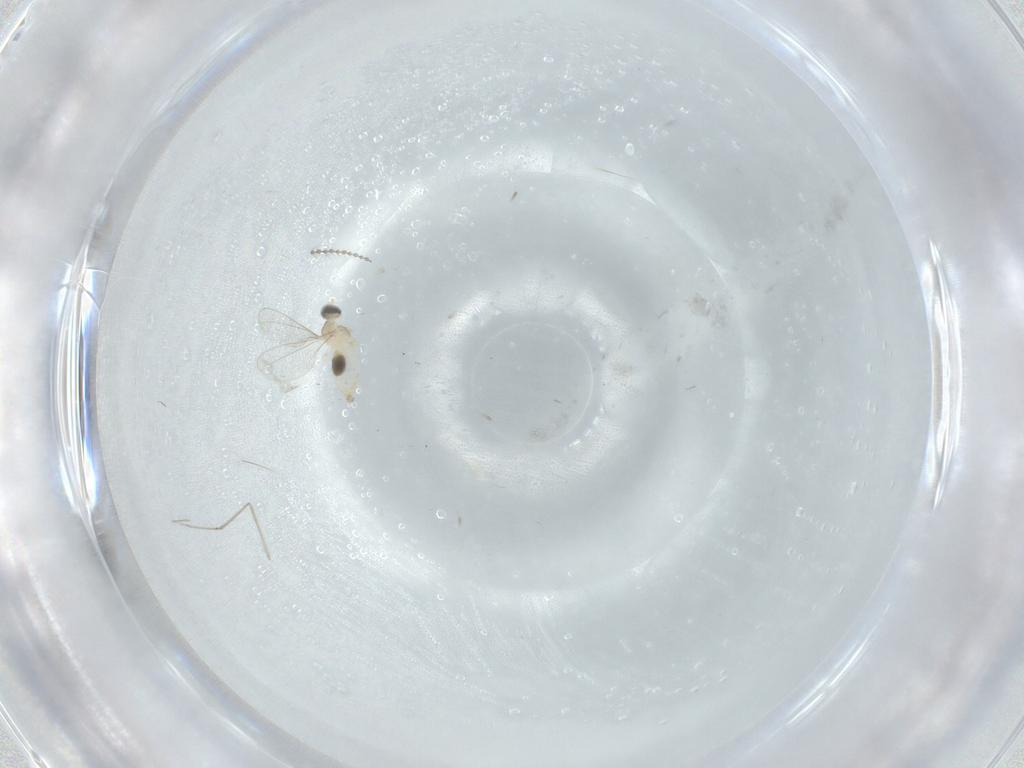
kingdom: Animalia
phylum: Arthropoda
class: Insecta
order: Diptera
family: Cecidomyiidae
